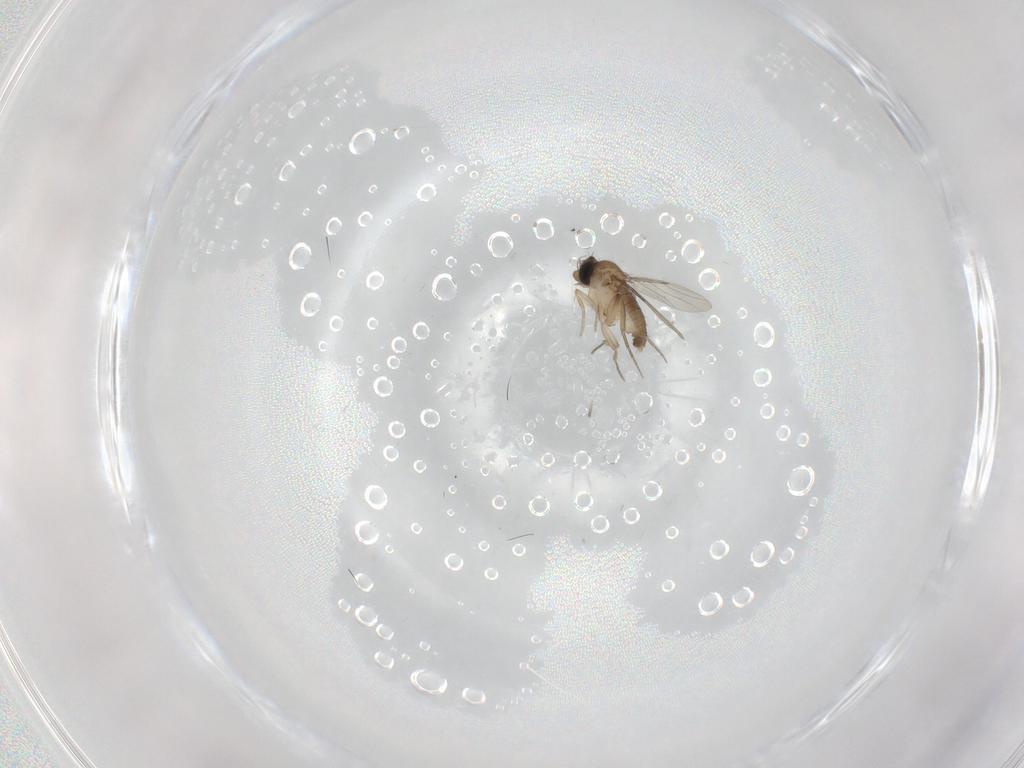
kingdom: Animalia
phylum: Arthropoda
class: Insecta
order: Diptera
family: Phoridae
